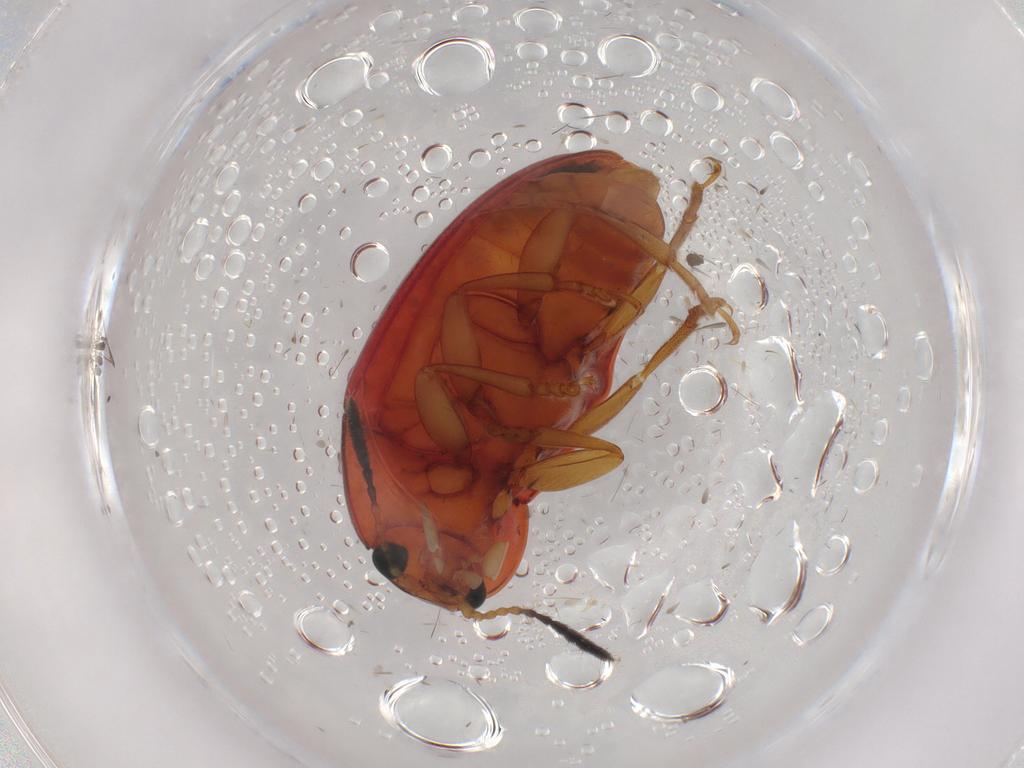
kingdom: Animalia
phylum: Arthropoda
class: Insecta
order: Coleoptera
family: Erotylidae
